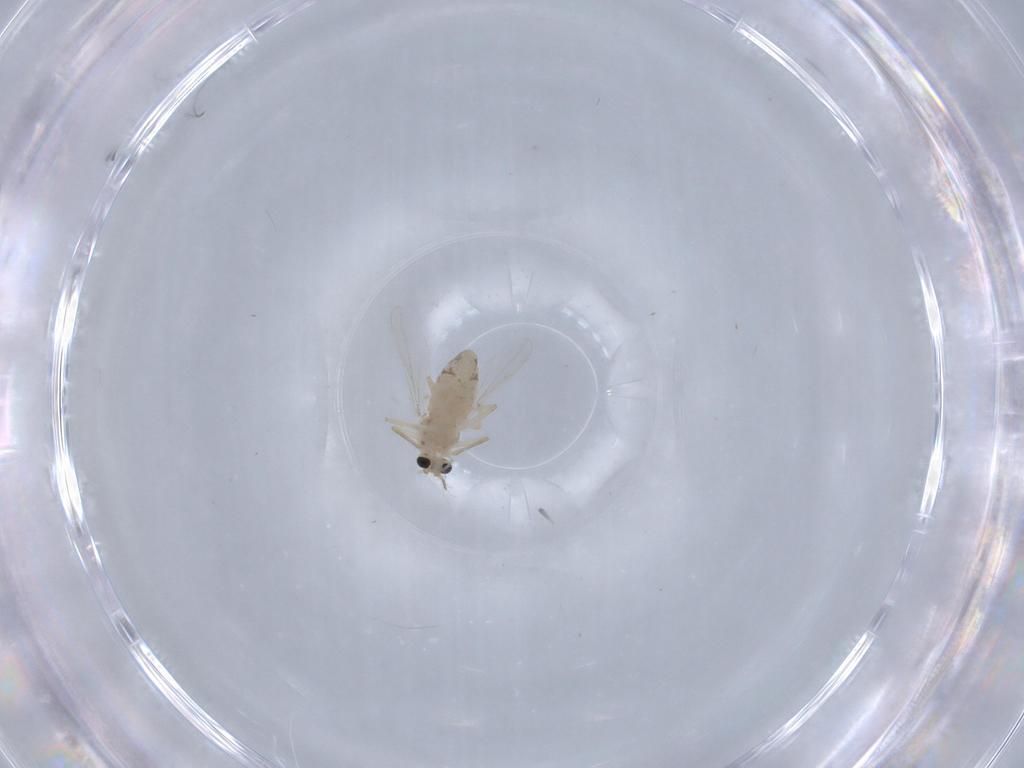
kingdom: Animalia
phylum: Arthropoda
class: Insecta
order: Diptera
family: Chironomidae
